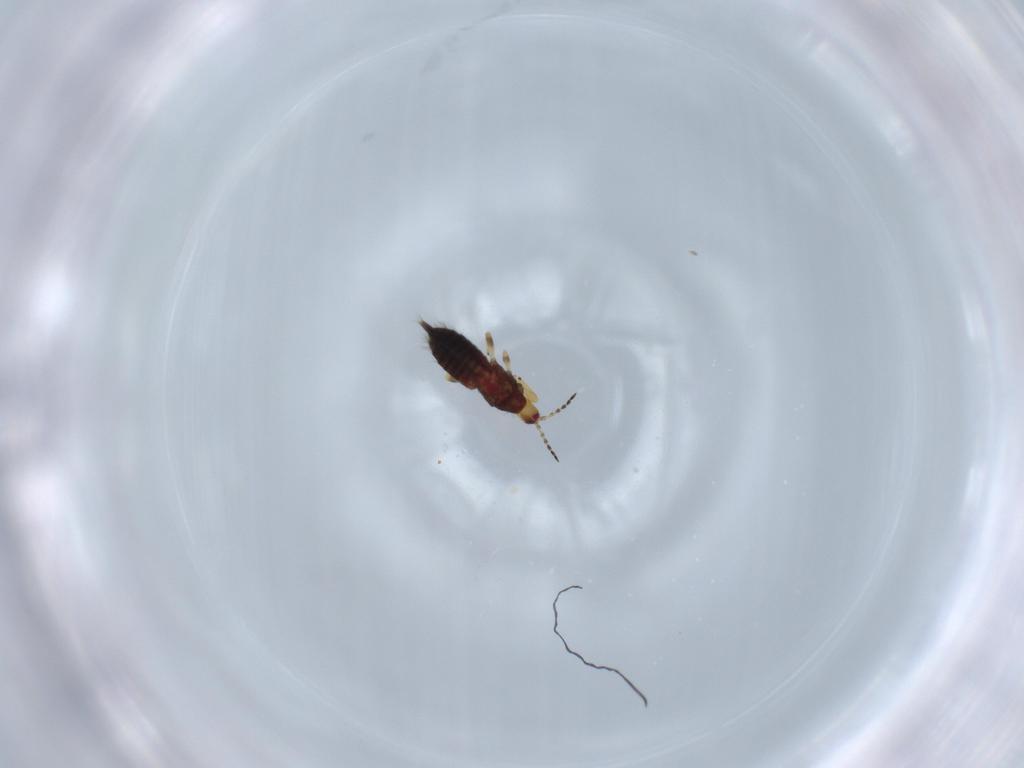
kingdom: Animalia
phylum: Arthropoda
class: Insecta
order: Thysanoptera
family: Phlaeothripidae
